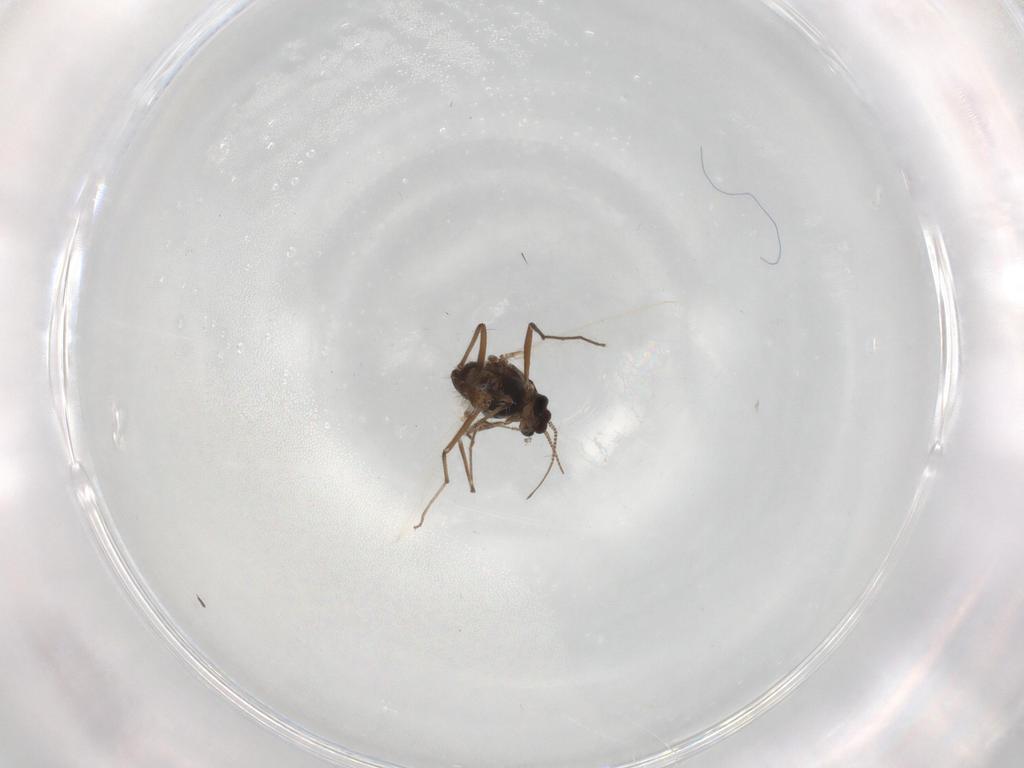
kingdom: Animalia
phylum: Arthropoda
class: Insecta
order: Diptera
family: Chironomidae
